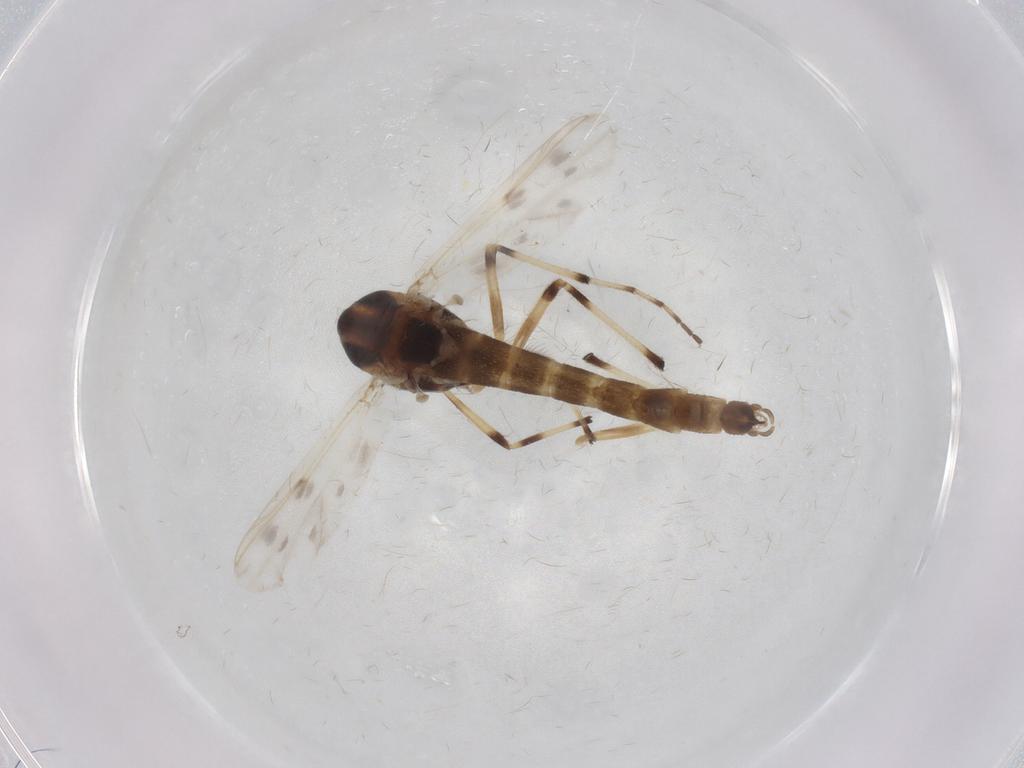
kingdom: Animalia
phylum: Arthropoda
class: Insecta
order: Diptera
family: Chironomidae
